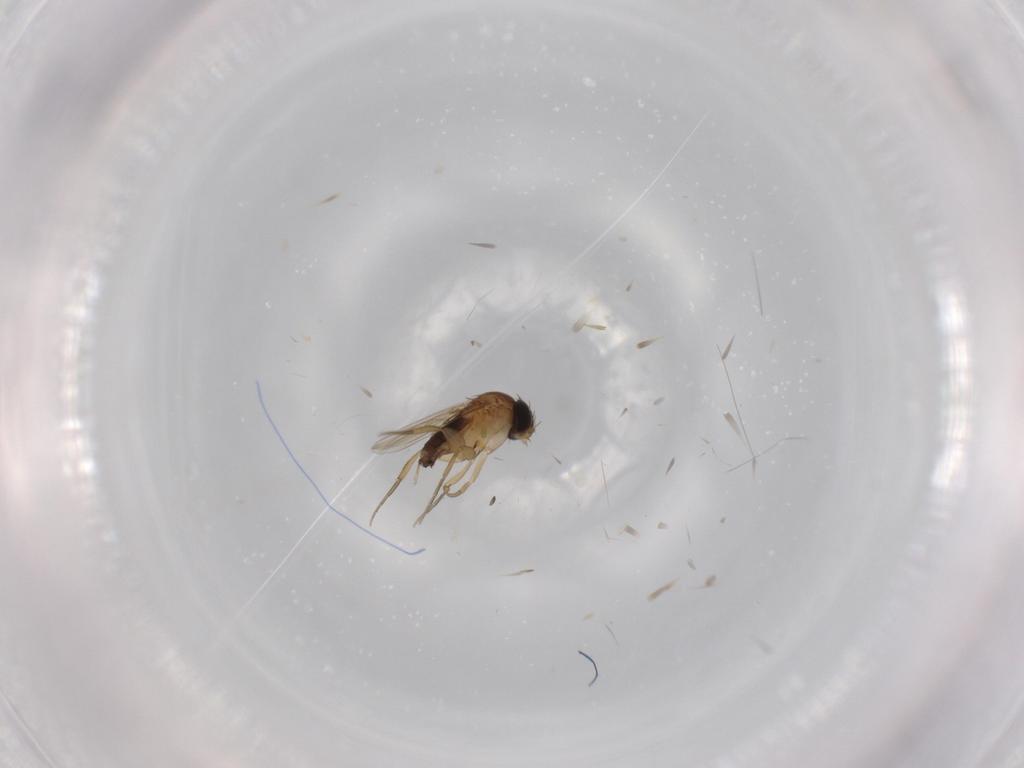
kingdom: Animalia
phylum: Arthropoda
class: Insecta
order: Diptera
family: Phoridae
